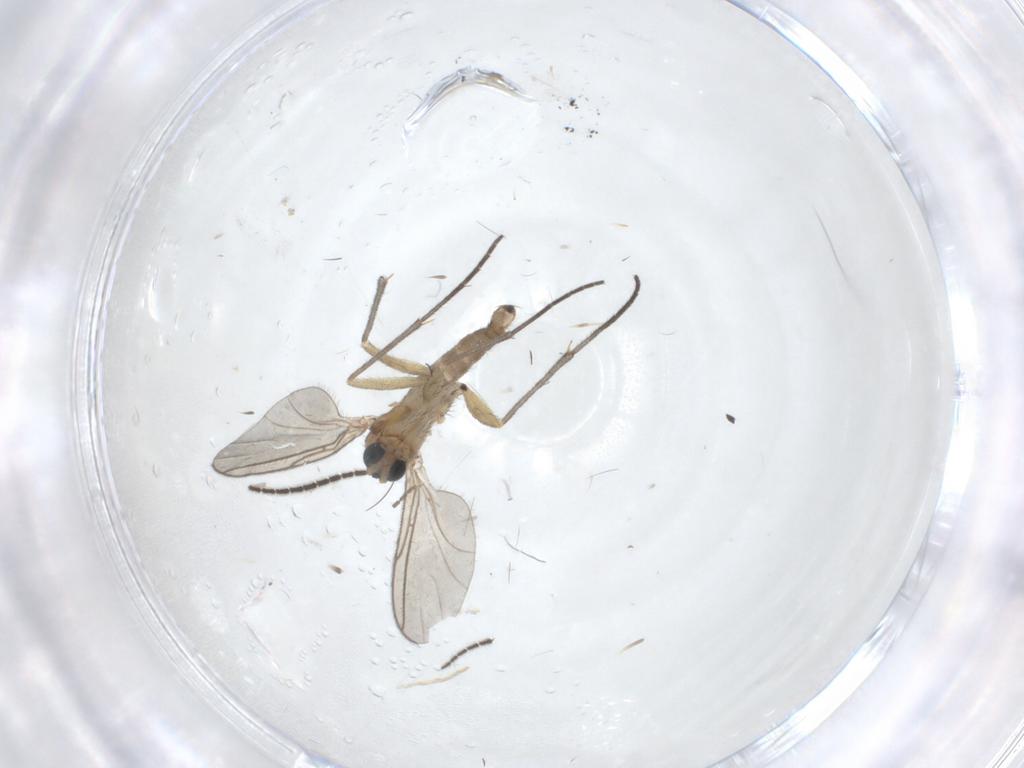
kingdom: Animalia
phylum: Arthropoda
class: Insecta
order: Diptera
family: Sciaridae
